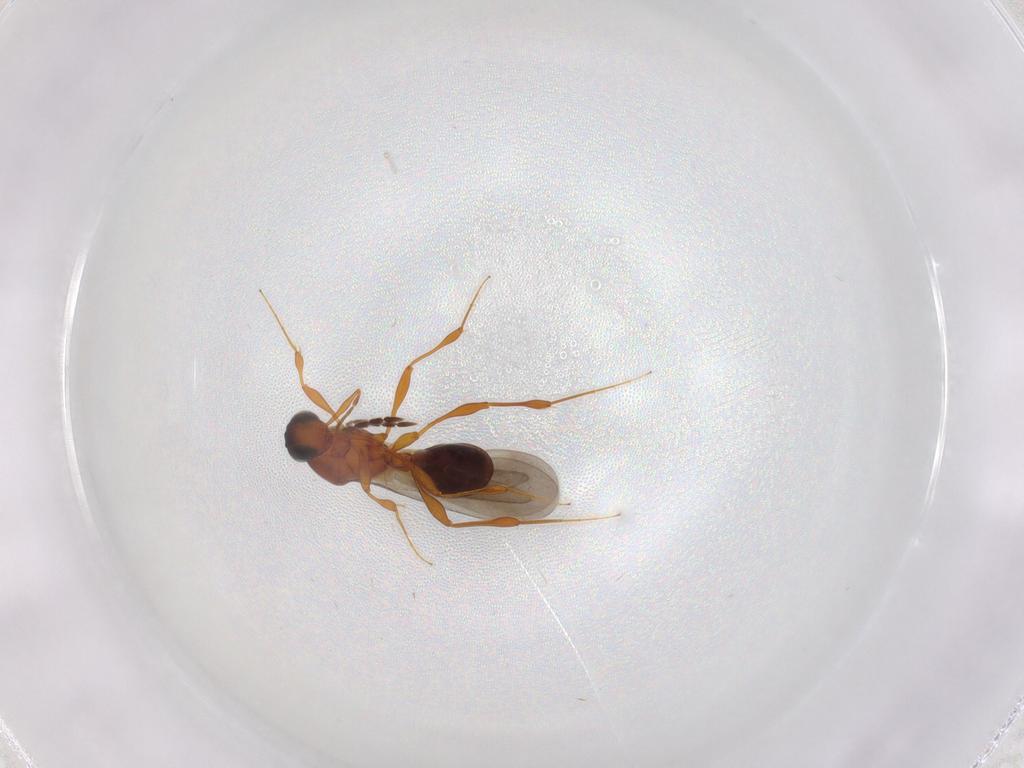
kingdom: Animalia
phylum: Arthropoda
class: Insecta
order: Hymenoptera
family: Platygastridae
